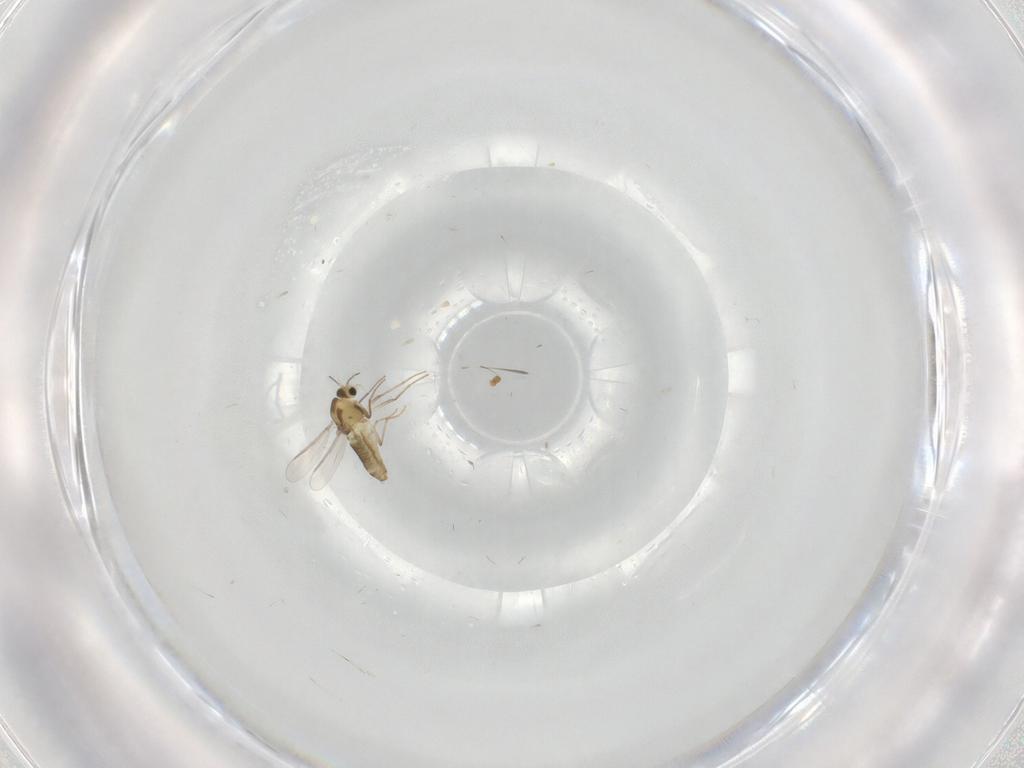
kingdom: Animalia
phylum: Arthropoda
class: Insecta
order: Diptera
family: Chironomidae
